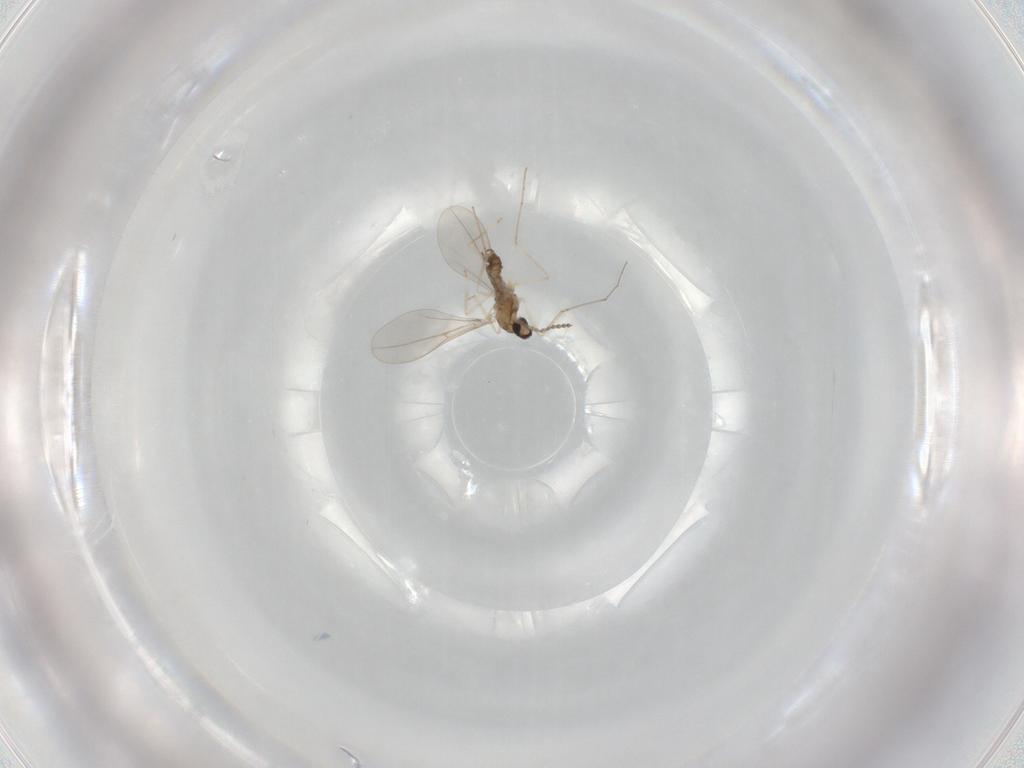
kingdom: Animalia
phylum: Arthropoda
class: Insecta
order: Diptera
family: Cecidomyiidae
